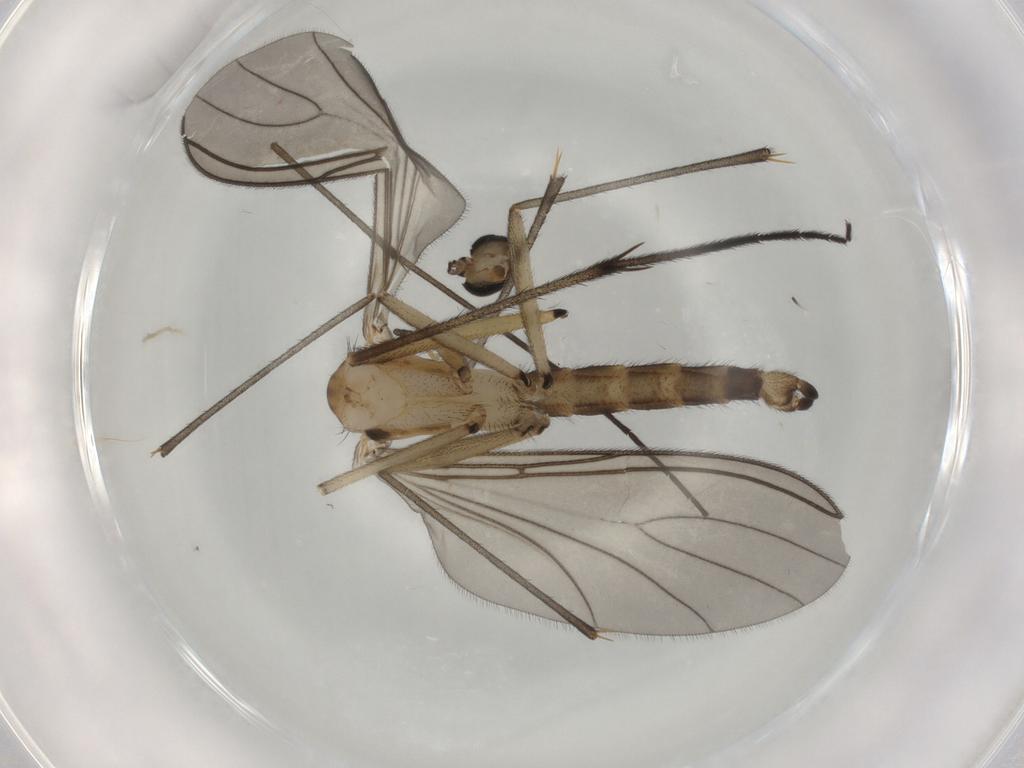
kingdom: Animalia
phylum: Arthropoda
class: Insecta
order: Diptera
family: Sciaridae
